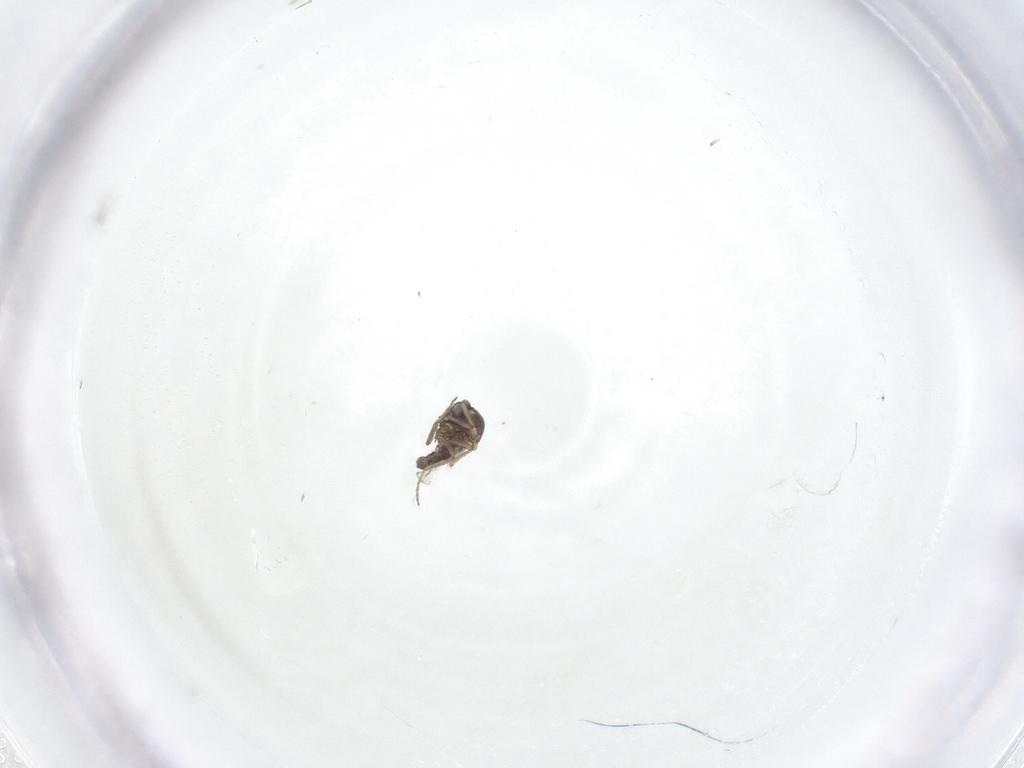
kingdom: Animalia
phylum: Arthropoda
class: Insecta
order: Diptera
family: Ceratopogonidae
